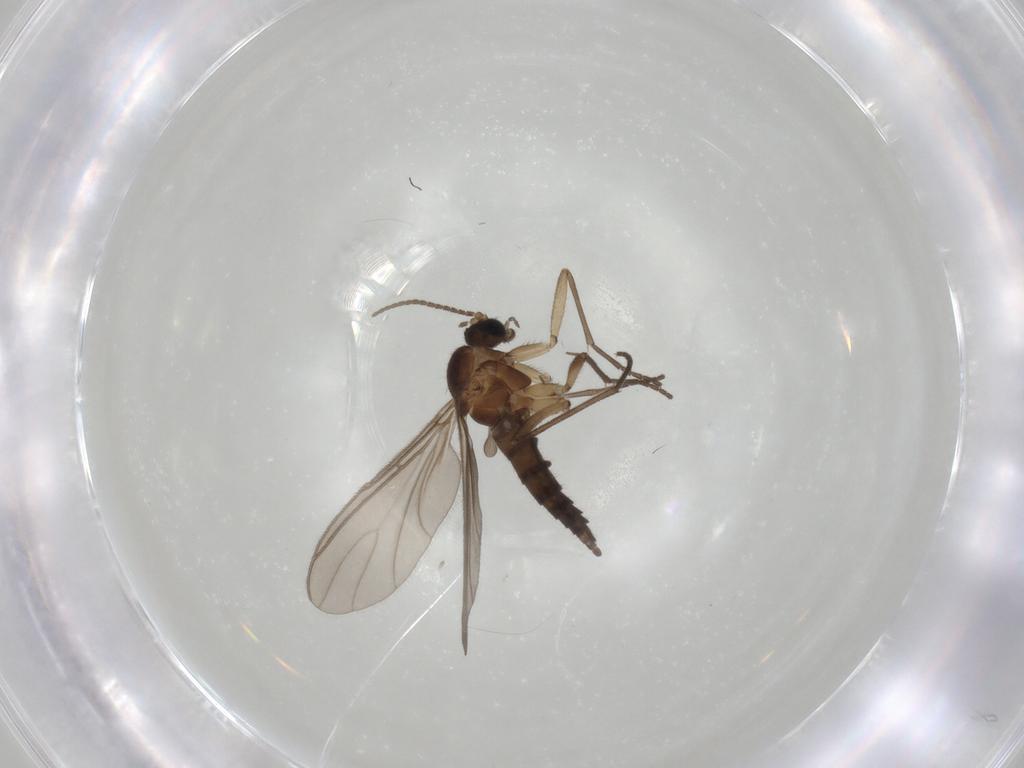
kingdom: Animalia
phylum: Arthropoda
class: Insecta
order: Diptera
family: Sciaridae
